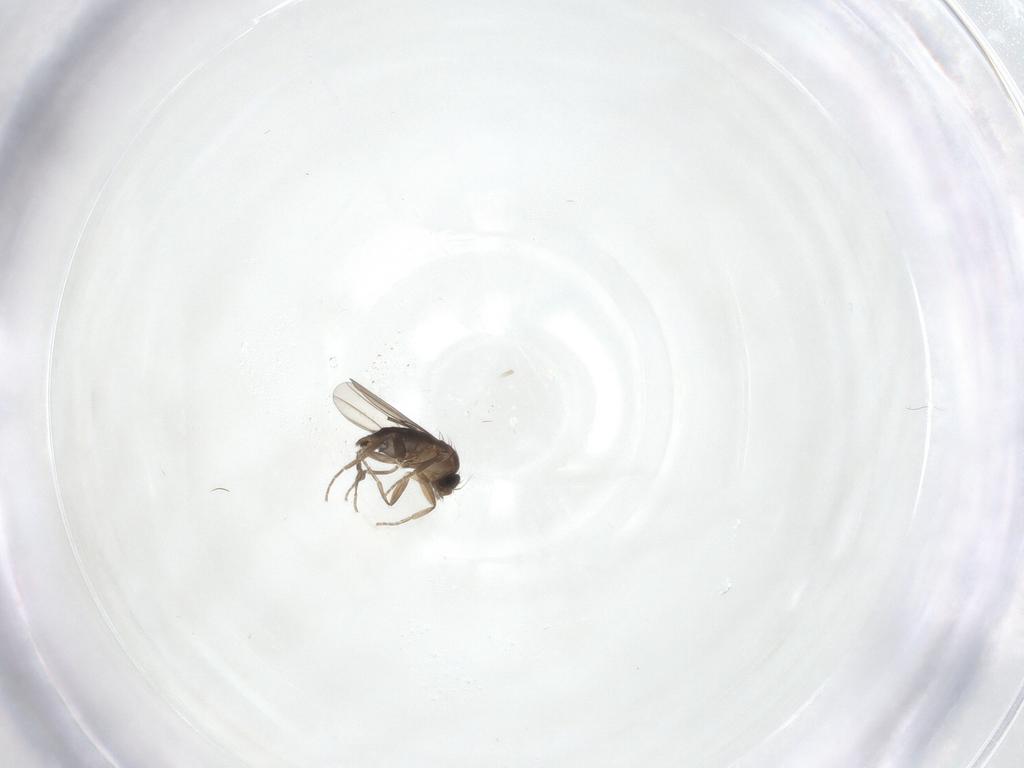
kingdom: Animalia
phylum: Arthropoda
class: Insecta
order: Diptera
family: Phoridae
